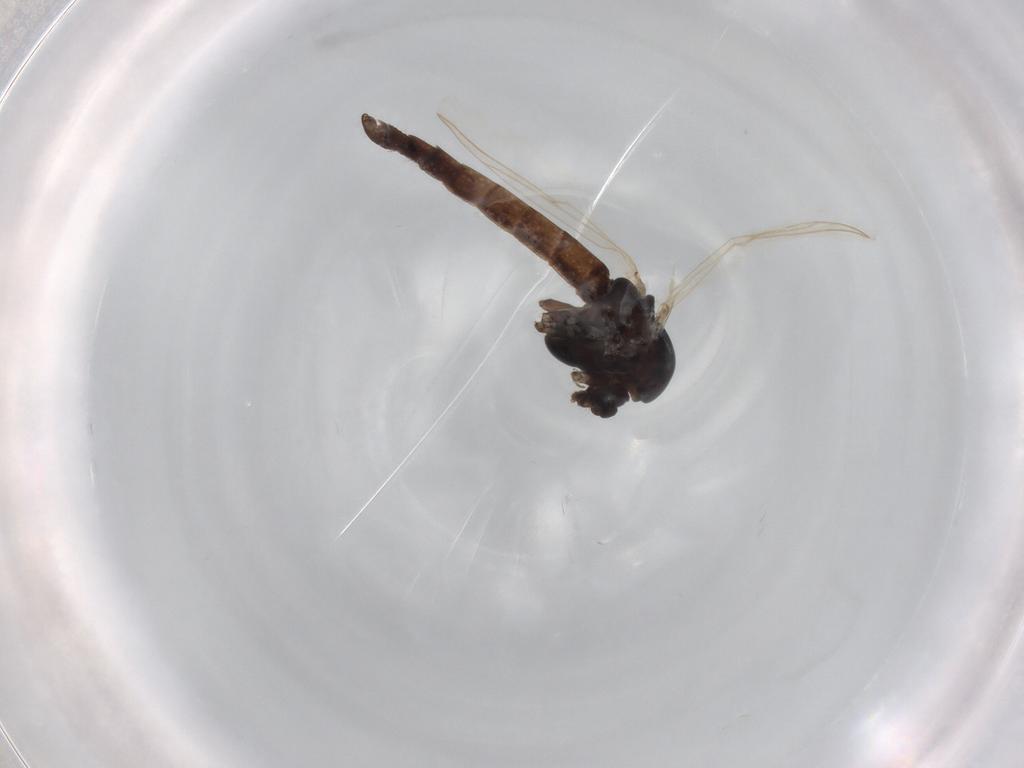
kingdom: Animalia
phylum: Arthropoda
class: Insecta
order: Diptera
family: Chironomidae
